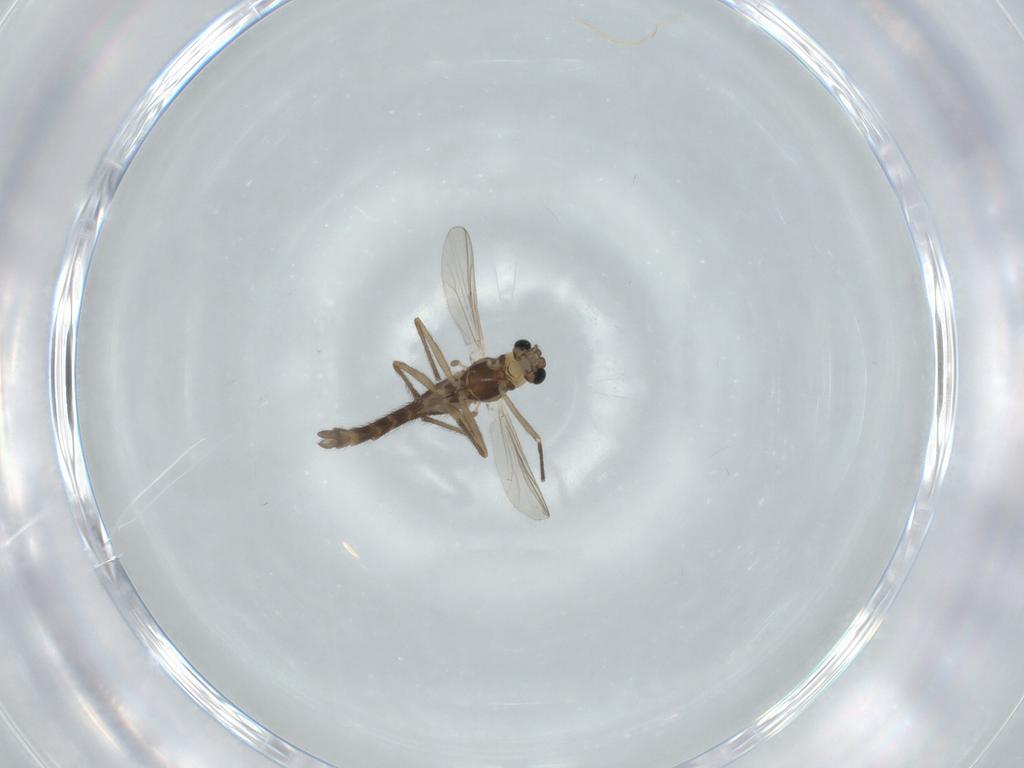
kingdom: Animalia
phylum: Arthropoda
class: Insecta
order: Diptera
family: Chironomidae
